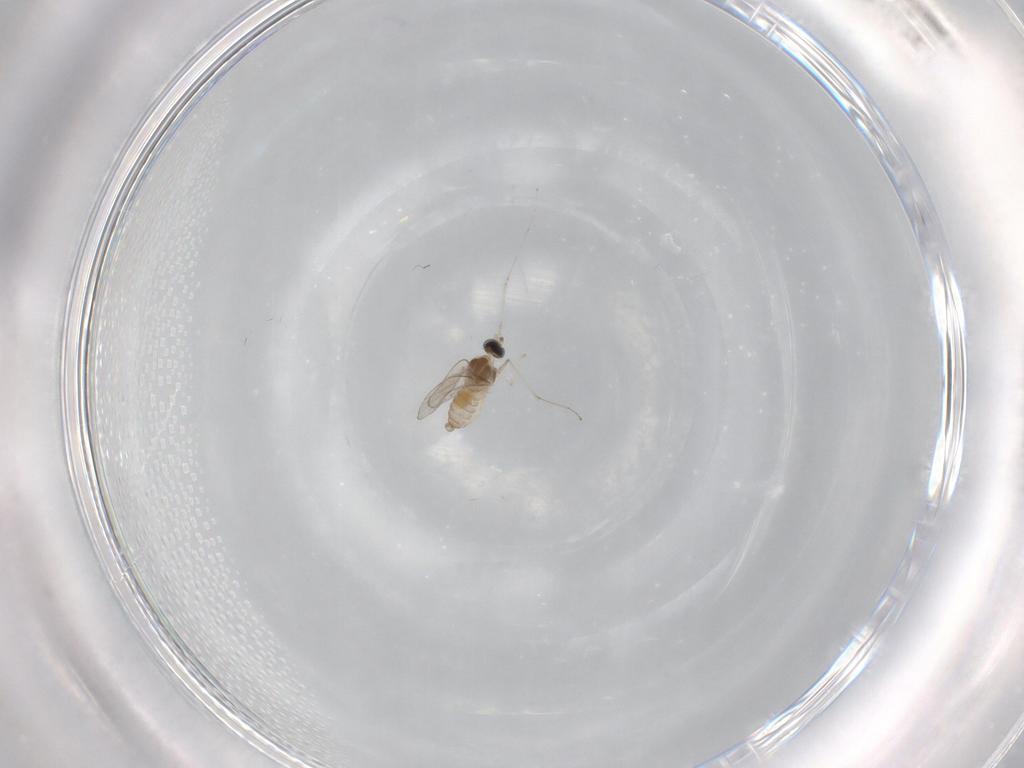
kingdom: Animalia
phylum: Arthropoda
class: Insecta
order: Diptera
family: Cecidomyiidae
